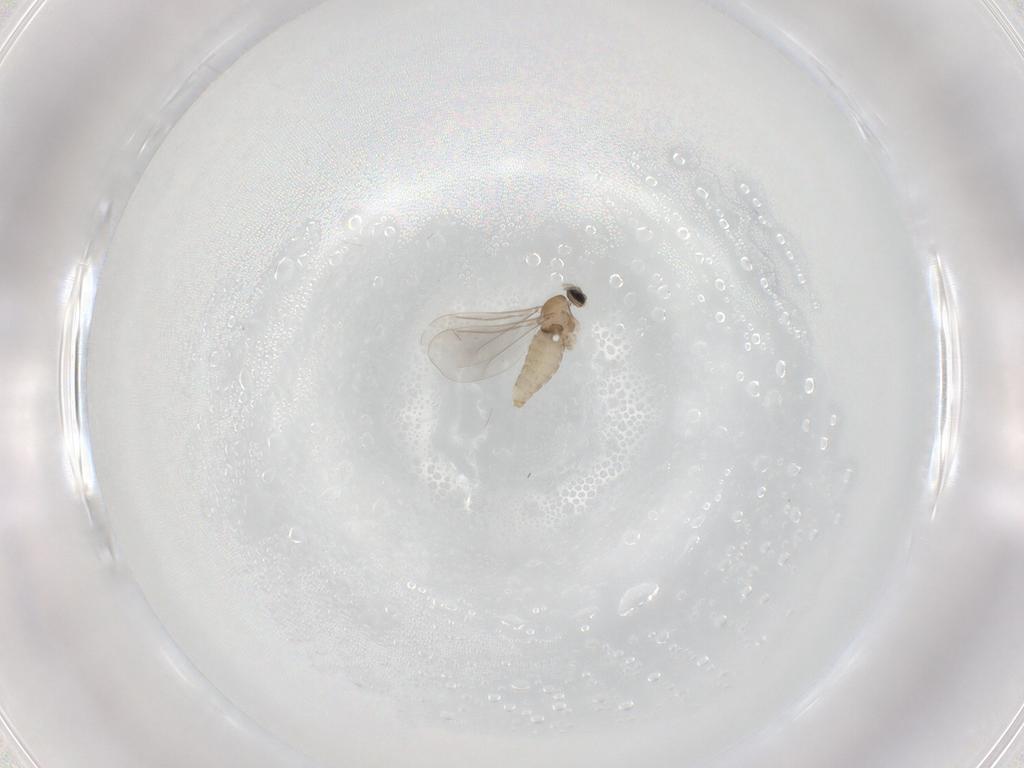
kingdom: Animalia
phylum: Arthropoda
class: Insecta
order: Diptera
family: Cecidomyiidae
